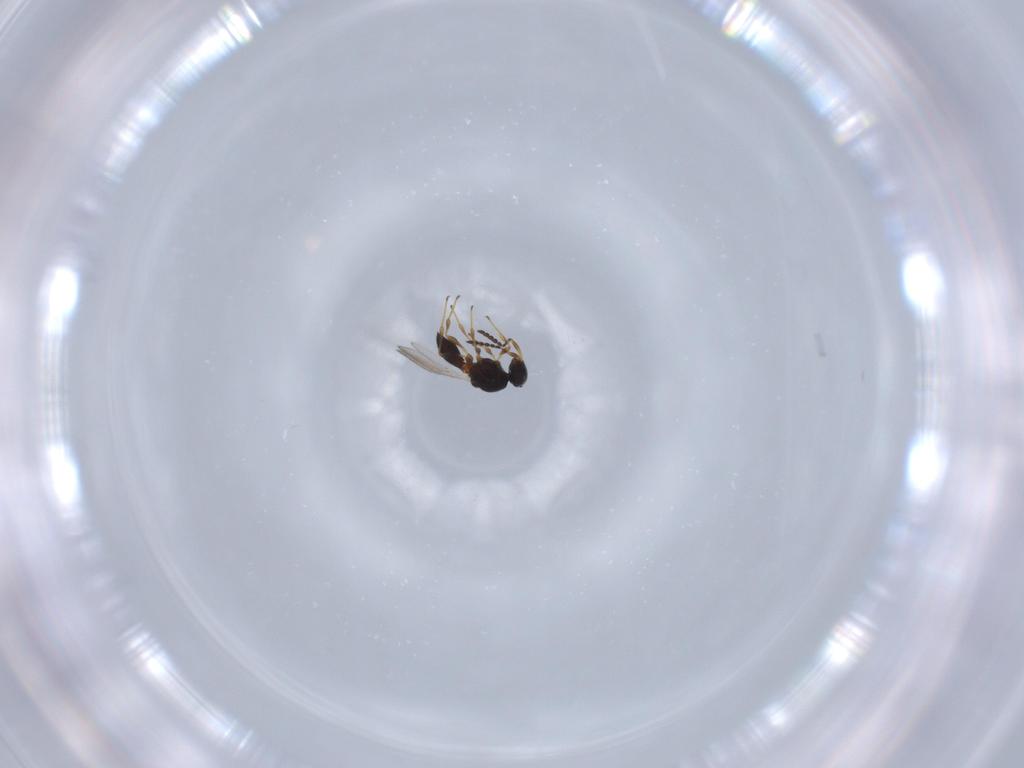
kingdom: Animalia
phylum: Arthropoda
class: Insecta
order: Hymenoptera
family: Platygastridae
